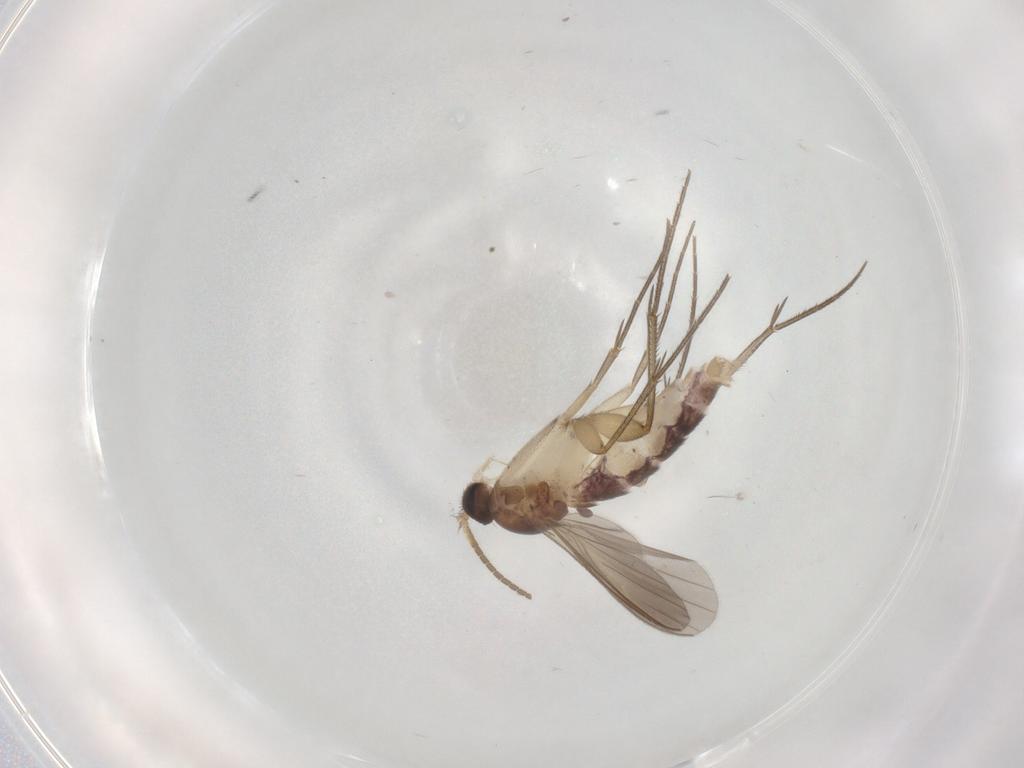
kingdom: Animalia
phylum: Arthropoda
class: Insecta
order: Diptera
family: Mycetophilidae
